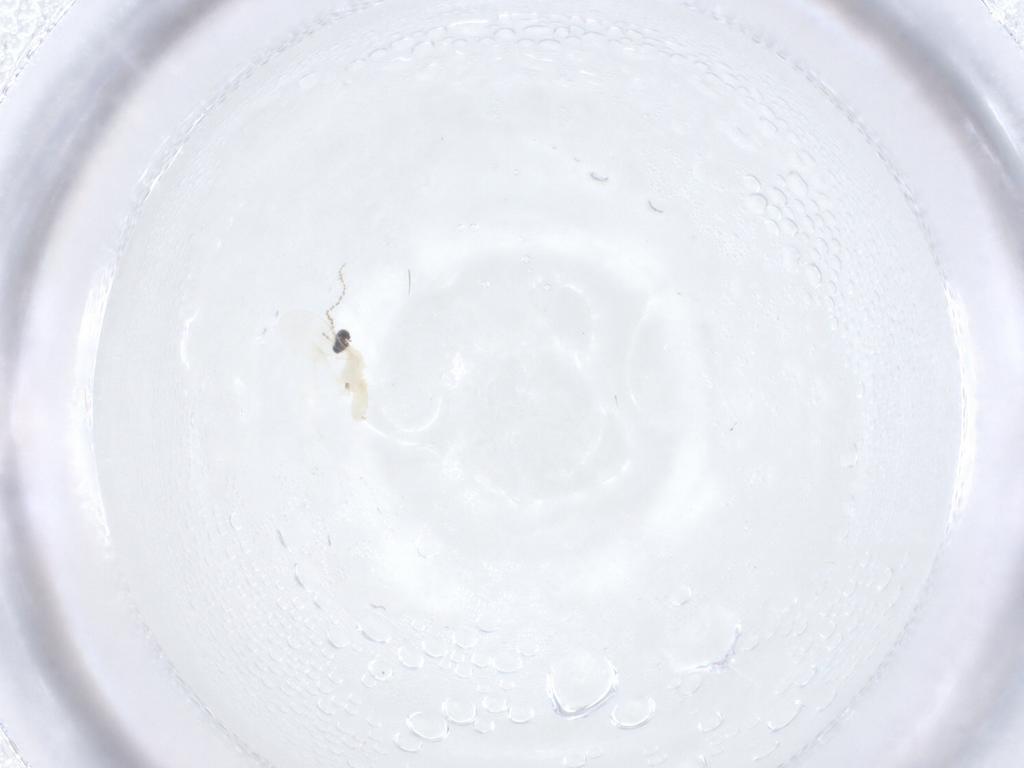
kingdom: Animalia
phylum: Arthropoda
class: Insecta
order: Diptera
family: Cecidomyiidae
